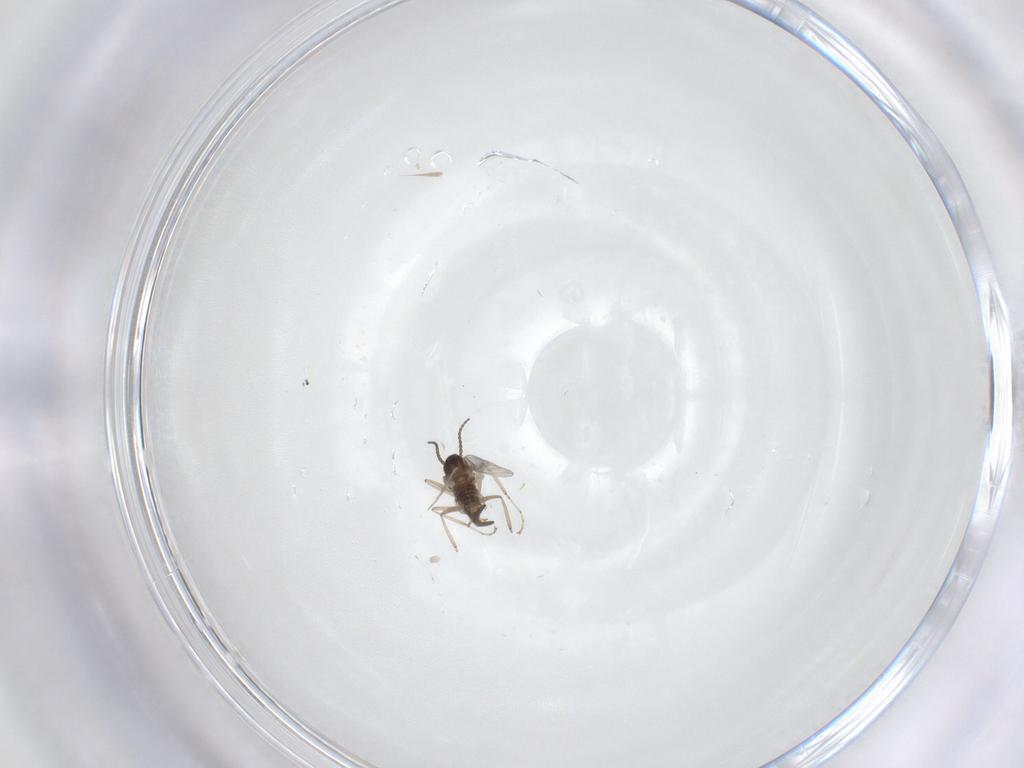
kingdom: Animalia
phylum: Arthropoda
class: Insecta
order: Diptera
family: Cecidomyiidae
